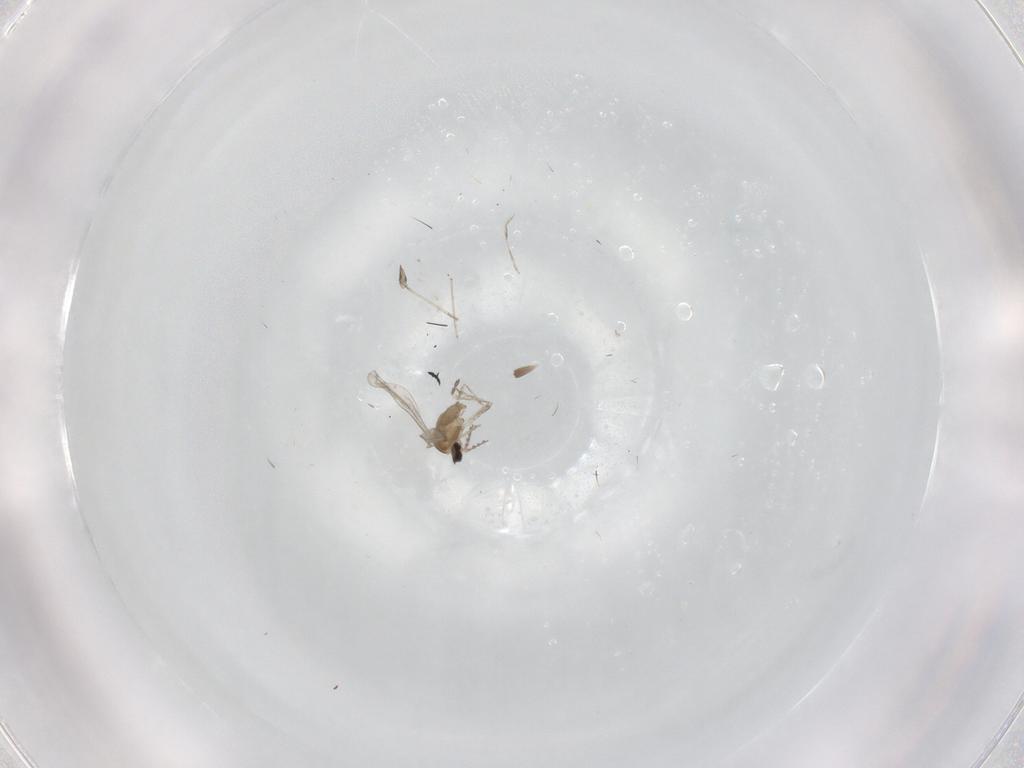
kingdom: Animalia
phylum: Arthropoda
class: Insecta
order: Diptera
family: Cecidomyiidae
